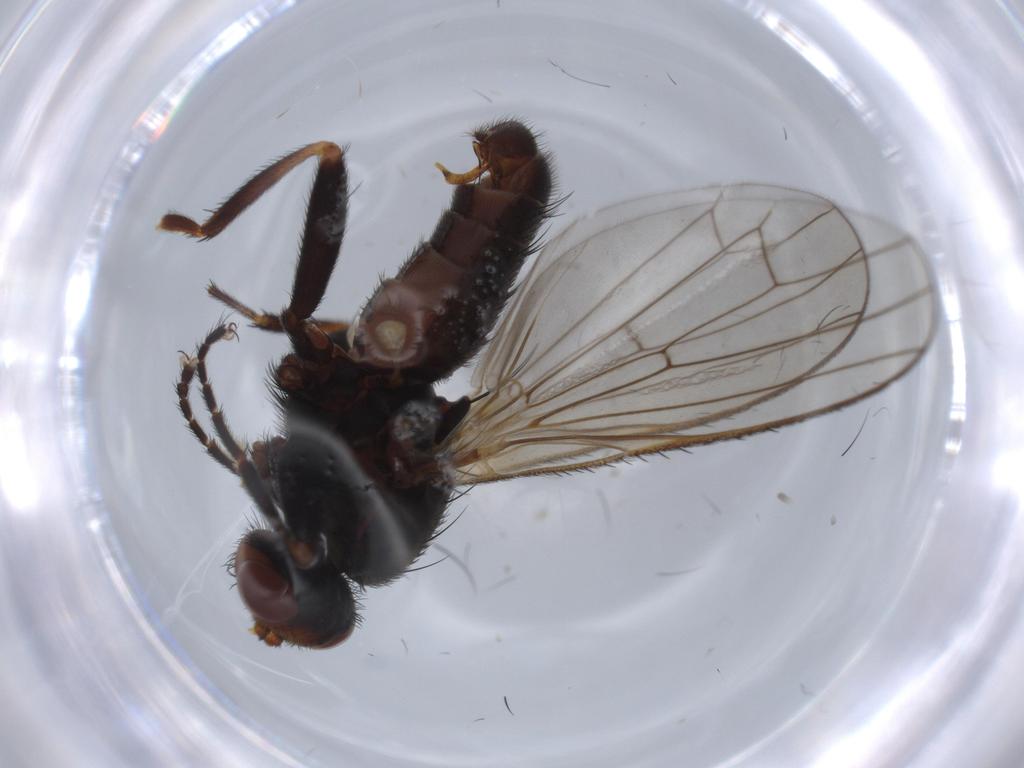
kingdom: Animalia
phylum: Arthropoda
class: Insecta
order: Diptera
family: Heleomyzidae
